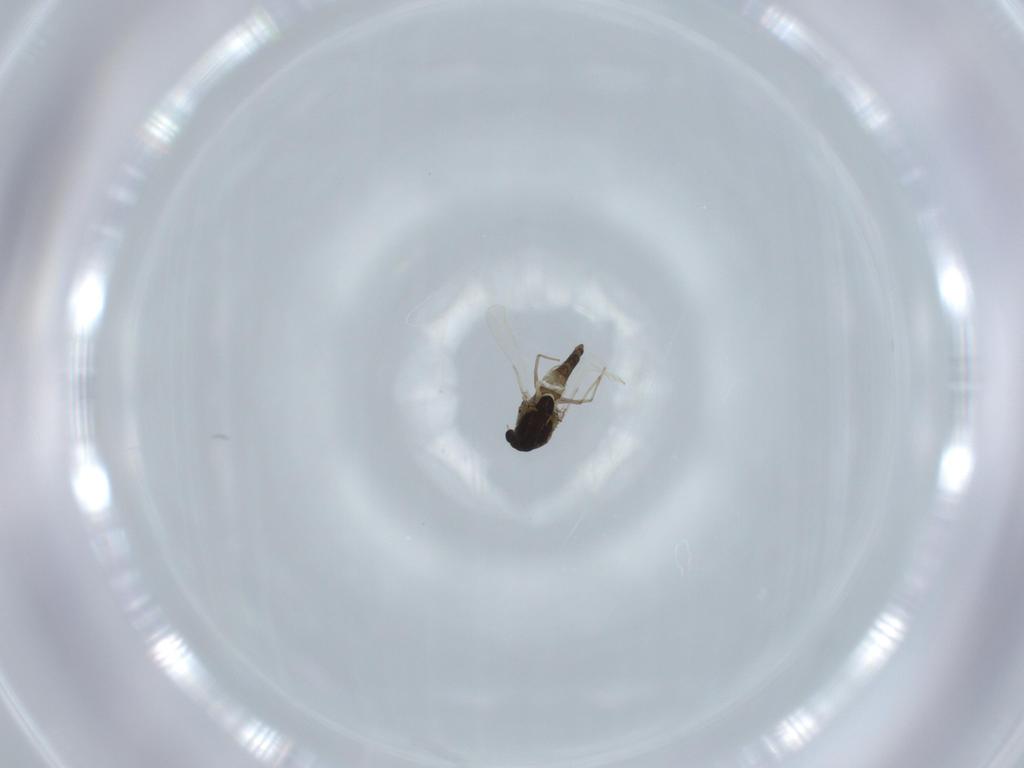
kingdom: Animalia
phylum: Arthropoda
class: Insecta
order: Diptera
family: Chironomidae
